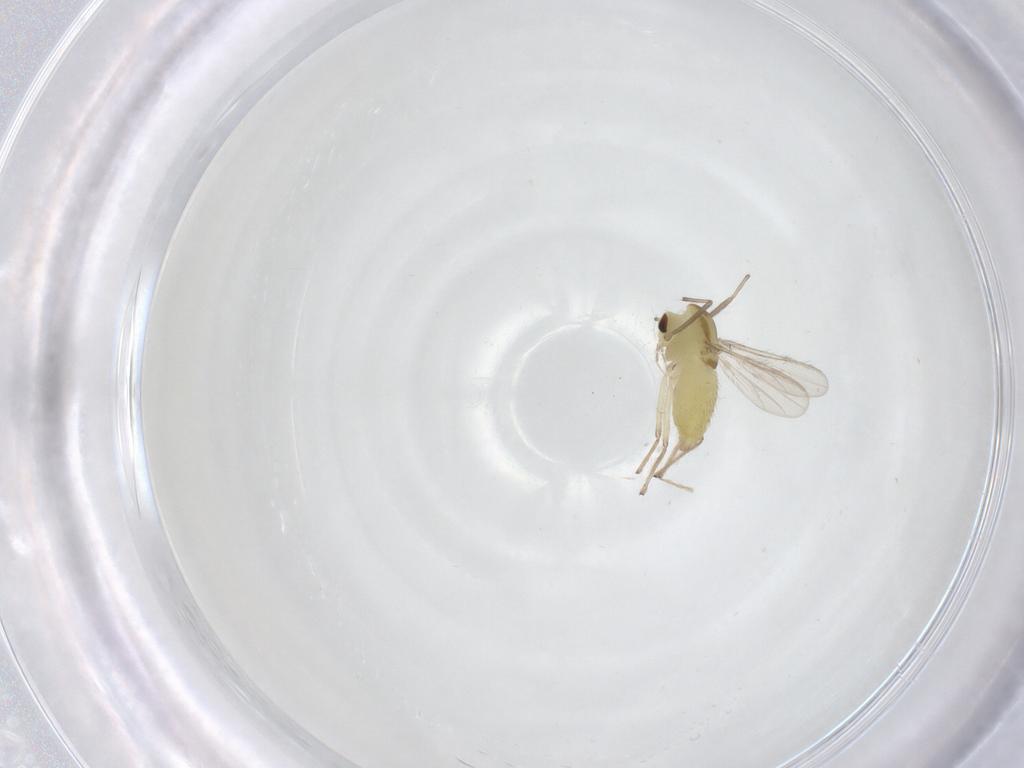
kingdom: Animalia
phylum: Arthropoda
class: Insecta
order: Diptera
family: Chironomidae
